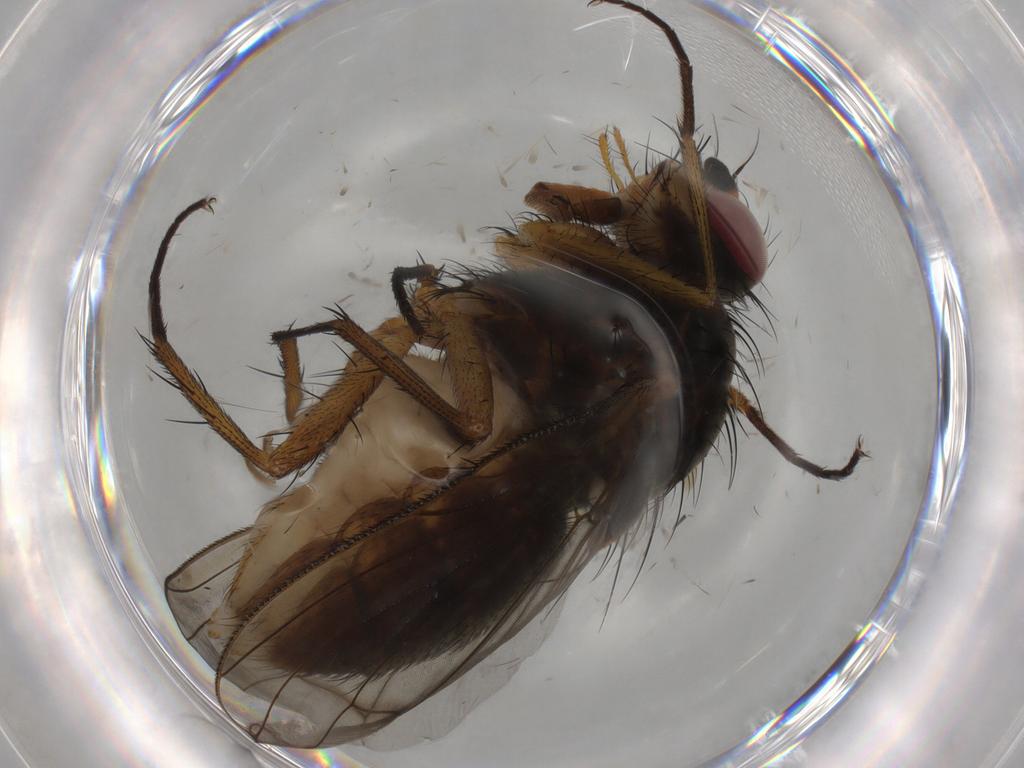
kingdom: Animalia
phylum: Arthropoda
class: Insecta
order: Diptera
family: Anthomyiidae
